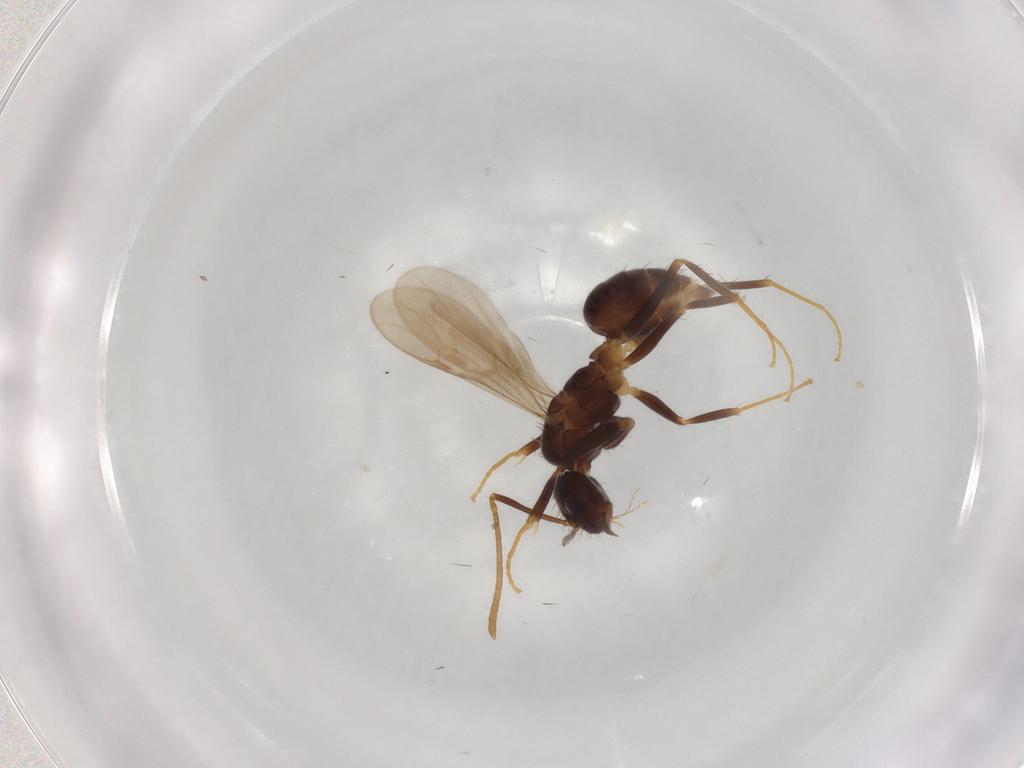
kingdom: Animalia
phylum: Arthropoda
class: Insecta
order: Hymenoptera
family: Formicidae
